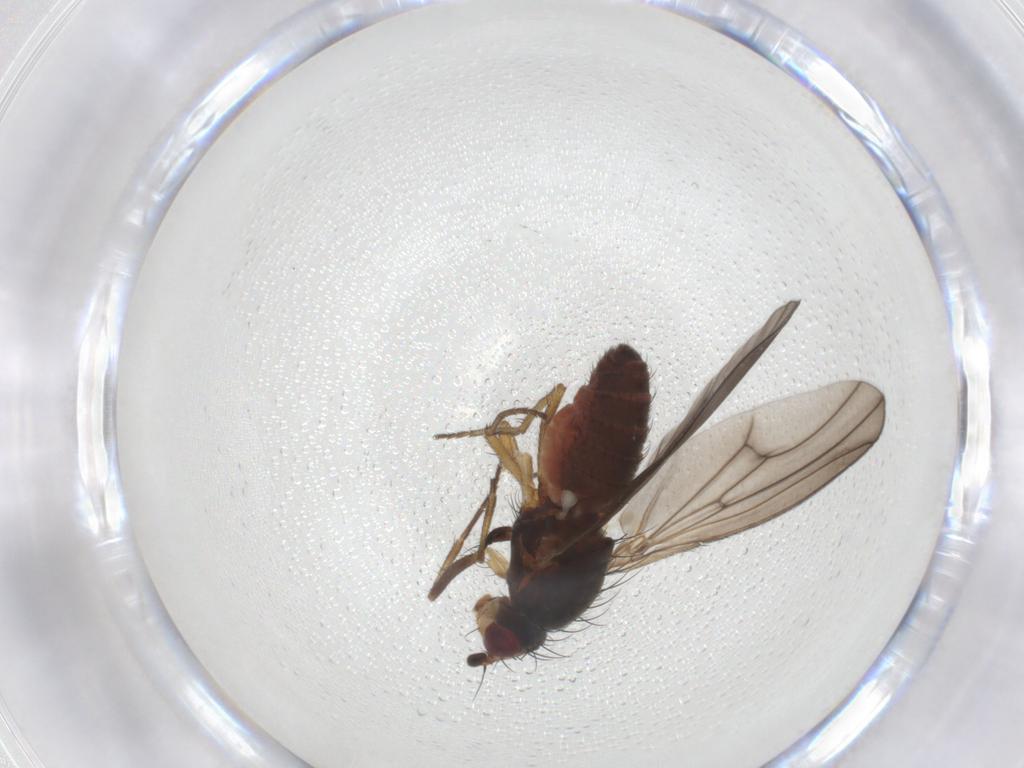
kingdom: Animalia
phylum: Arthropoda
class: Insecta
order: Diptera
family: Heleomyzidae
